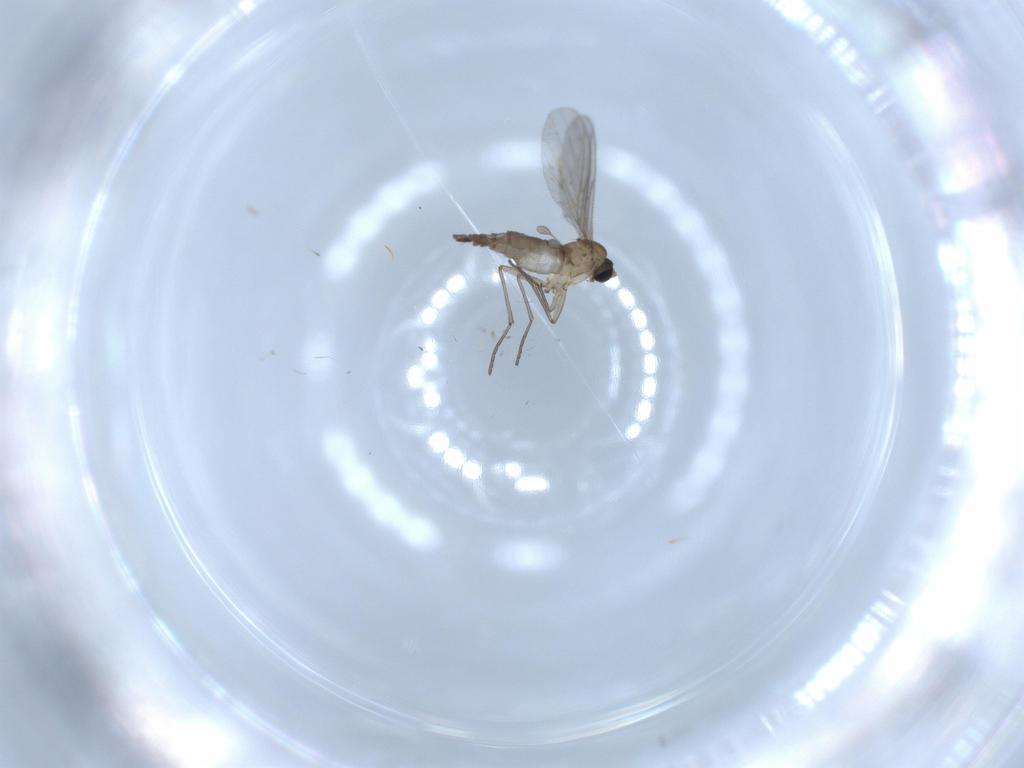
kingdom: Animalia
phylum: Arthropoda
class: Insecta
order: Diptera
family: Sciaridae
